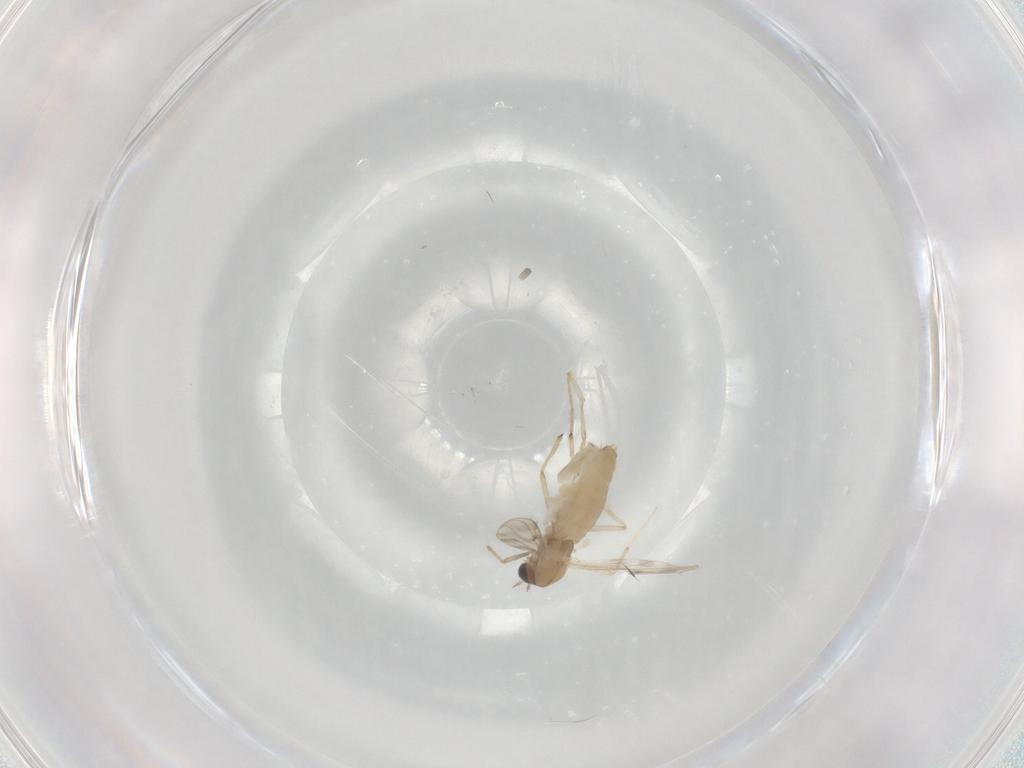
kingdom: Animalia
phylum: Arthropoda
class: Insecta
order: Diptera
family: Chironomidae
